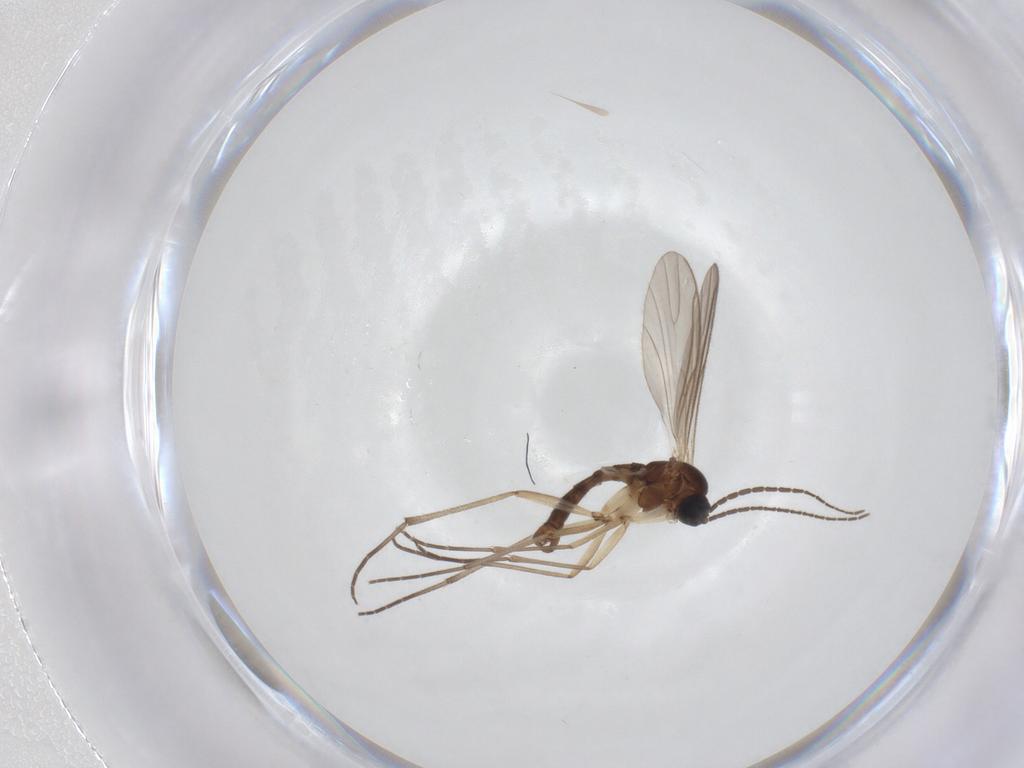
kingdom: Animalia
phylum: Arthropoda
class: Insecta
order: Diptera
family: Sciaridae
